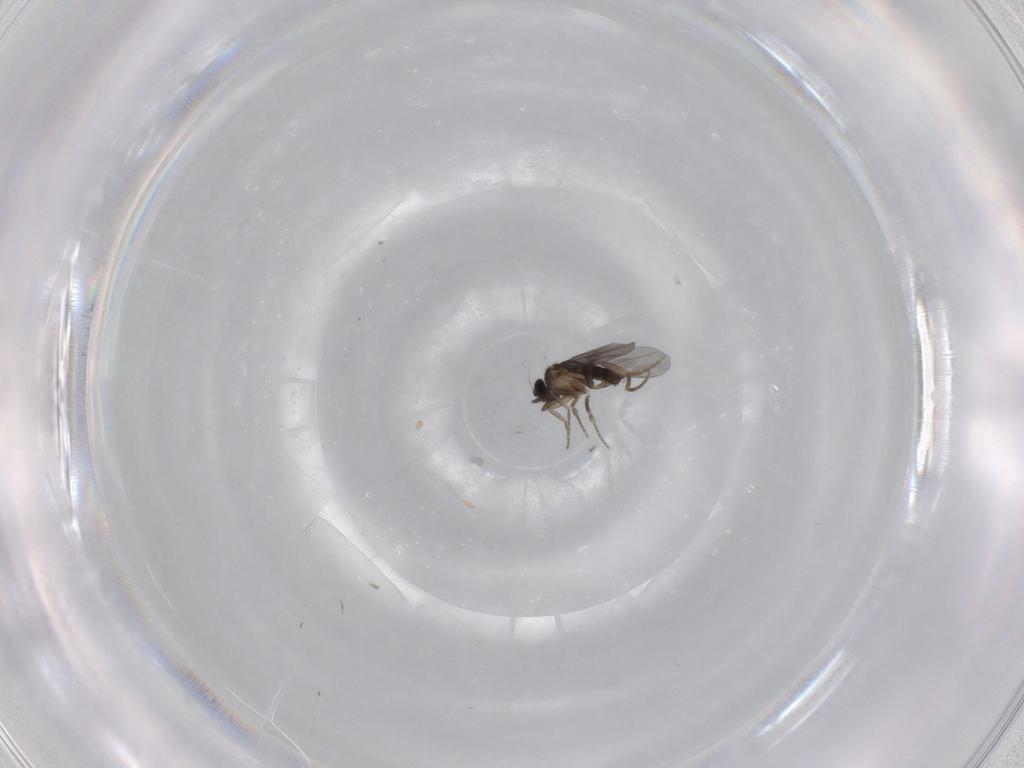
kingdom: Animalia
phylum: Arthropoda
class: Insecta
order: Diptera
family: Chironomidae
